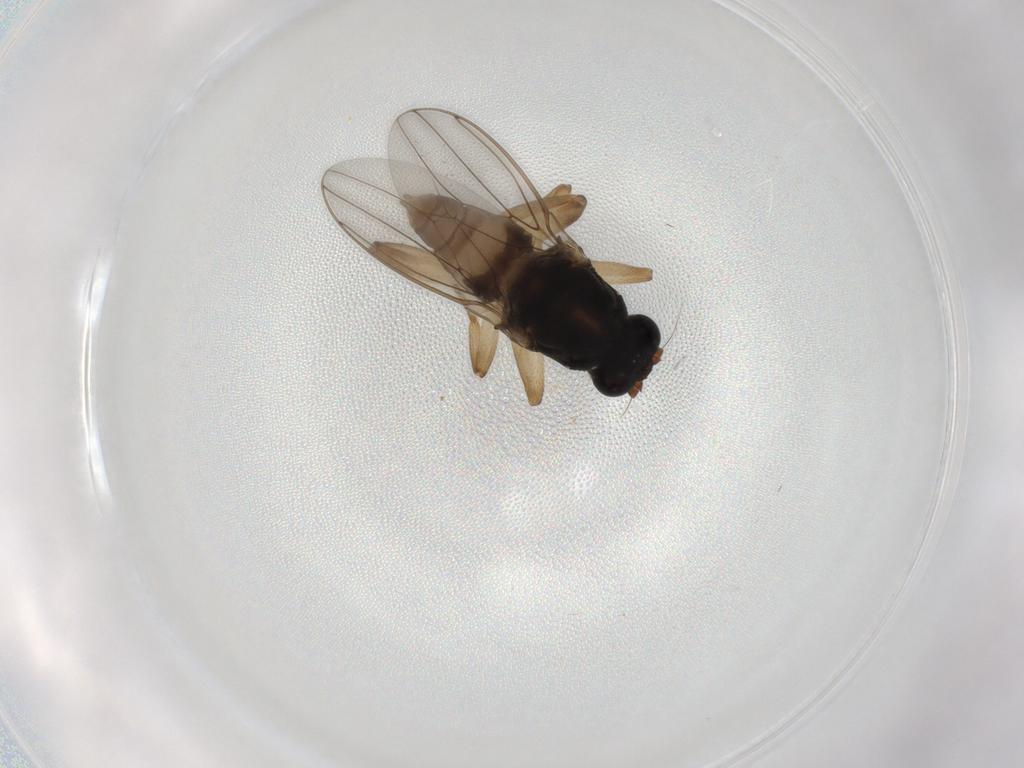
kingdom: Animalia
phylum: Arthropoda
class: Insecta
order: Diptera
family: Sphaeroceridae
